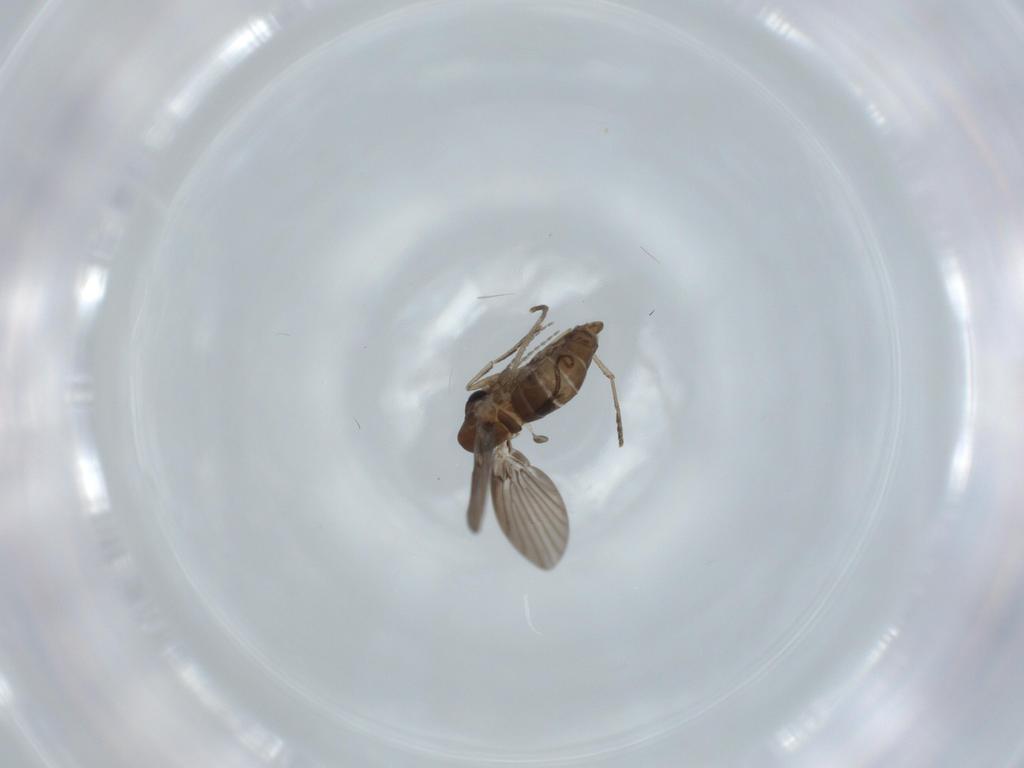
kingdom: Animalia
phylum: Arthropoda
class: Insecta
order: Diptera
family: Psychodidae
